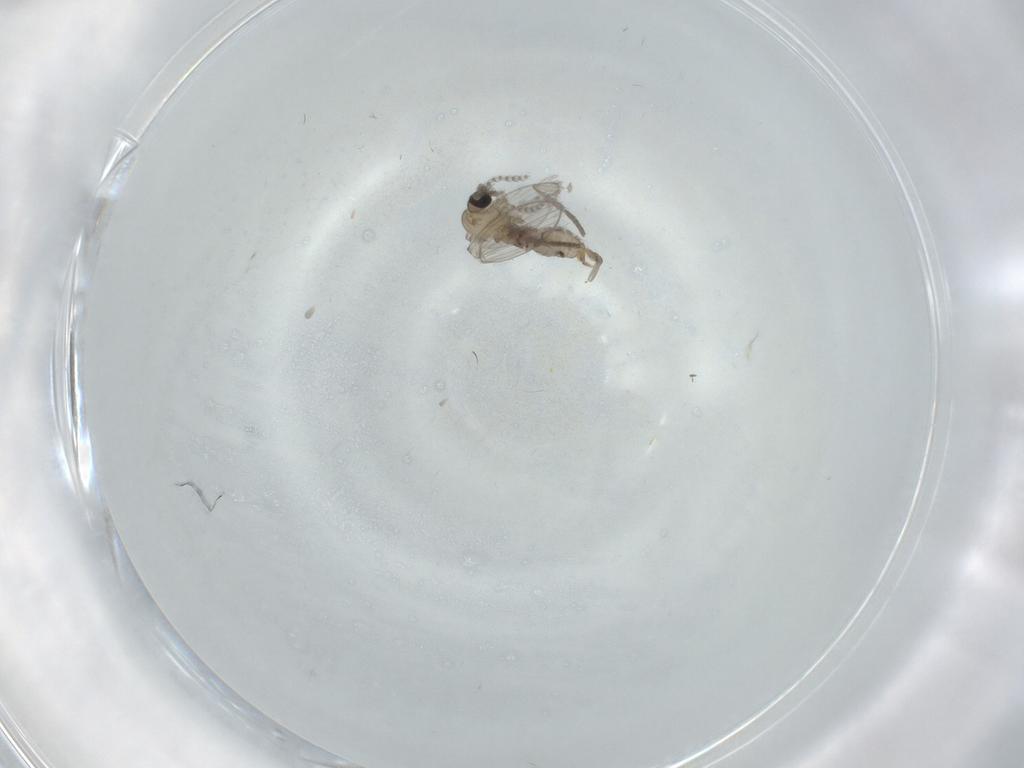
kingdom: Animalia
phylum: Arthropoda
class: Insecta
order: Diptera
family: Psychodidae
